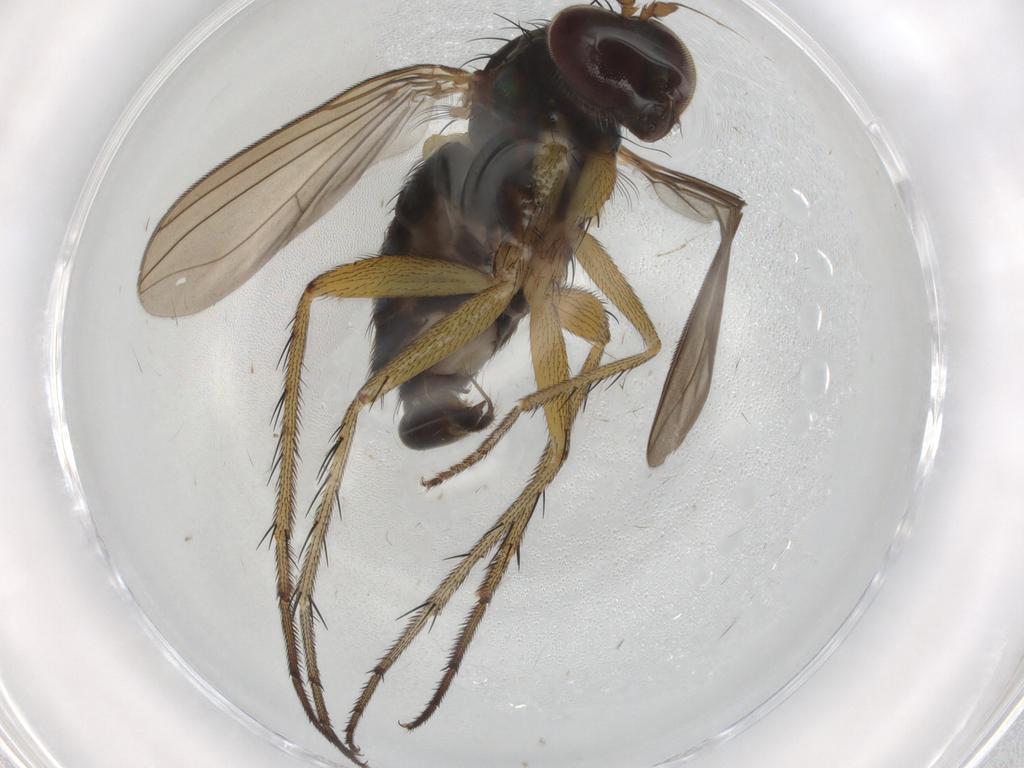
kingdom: Animalia
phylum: Arthropoda
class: Insecta
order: Diptera
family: Dolichopodidae
